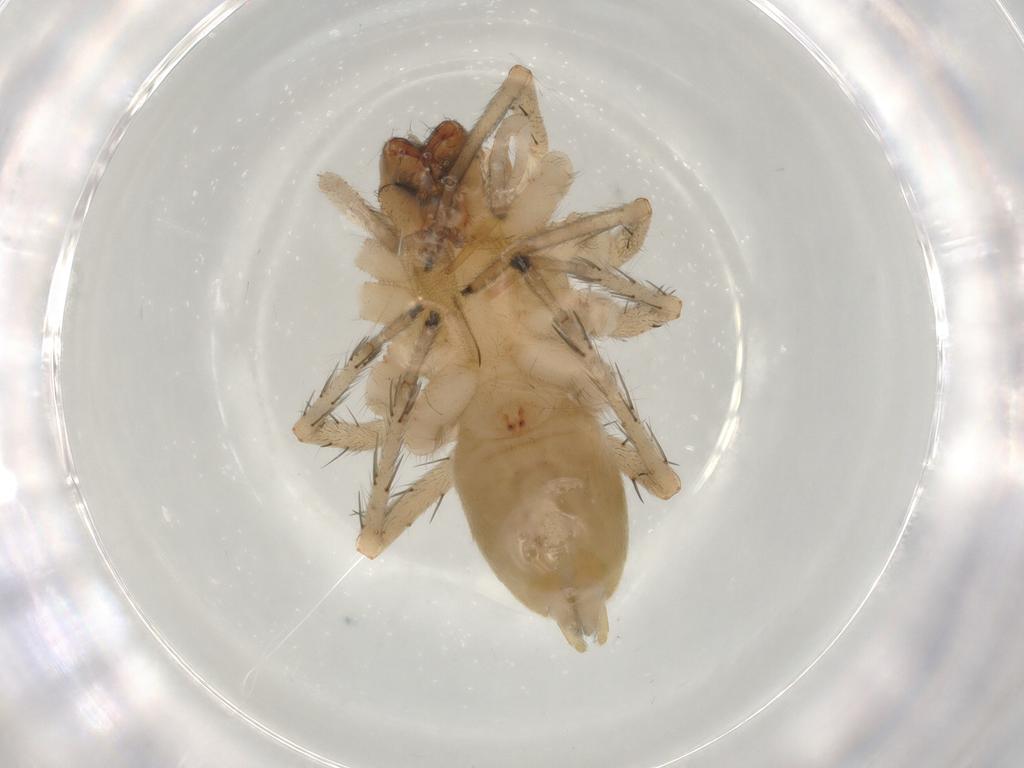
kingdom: Animalia
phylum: Arthropoda
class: Arachnida
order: Araneae
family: Anyphaenidae
